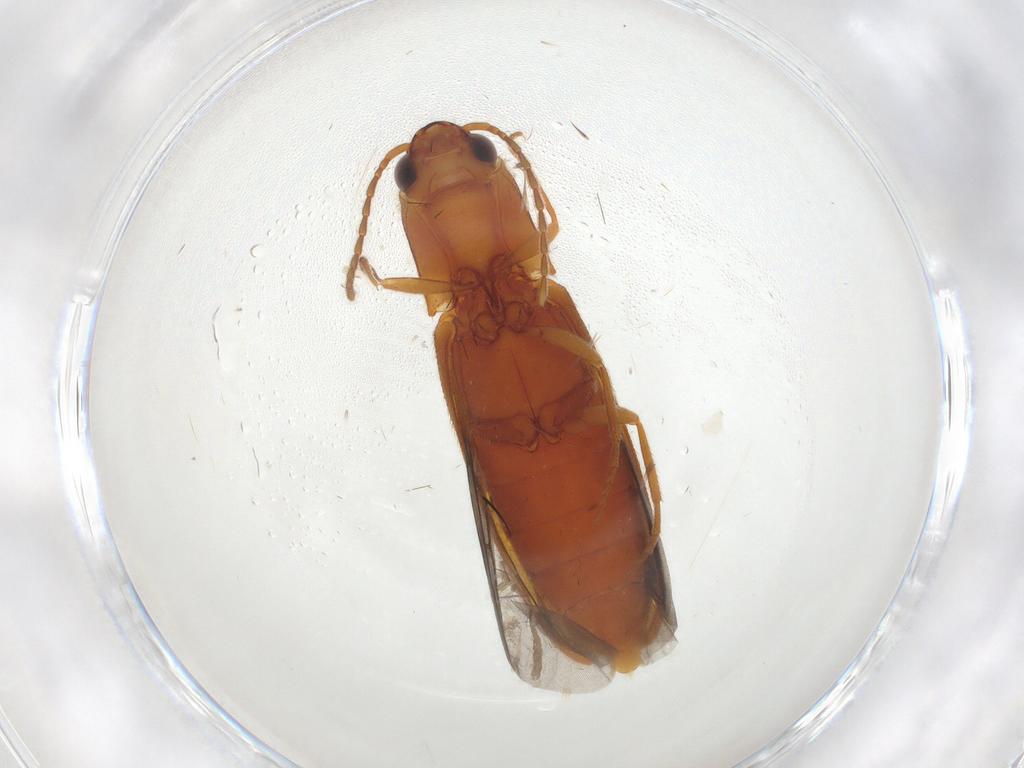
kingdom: Animalia
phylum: Arthropoda
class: Insecta
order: Coleoptera
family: Elateridae
